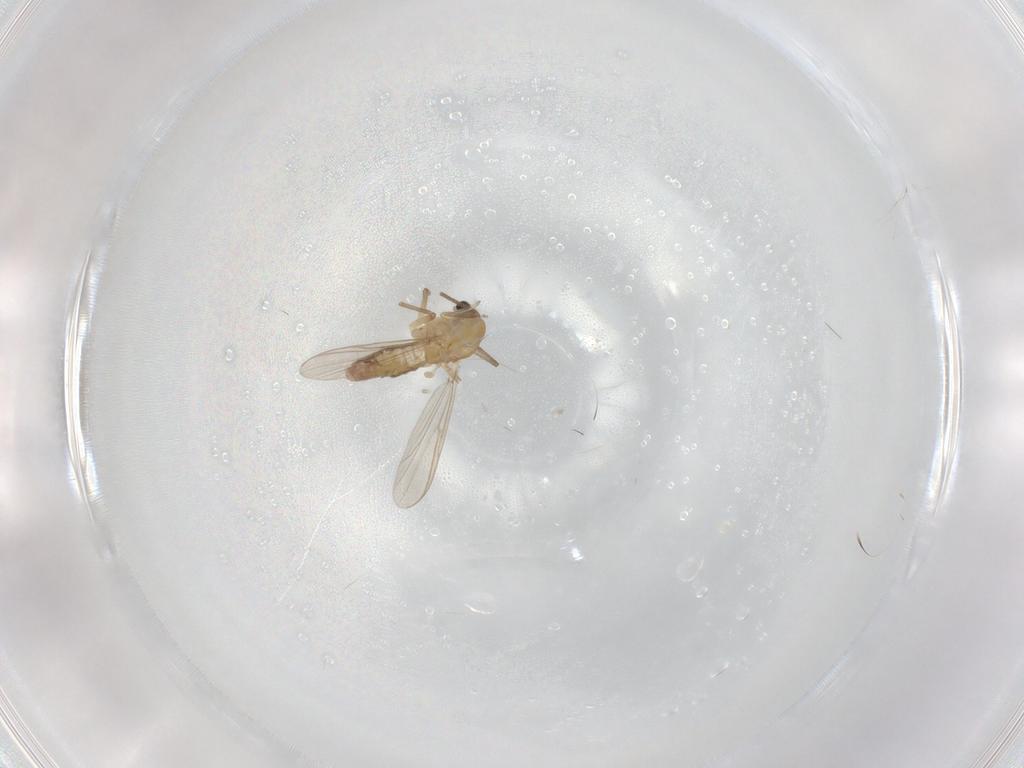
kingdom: Animalia
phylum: Arthropoda
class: Insecta
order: Diptera
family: Chironomidae
